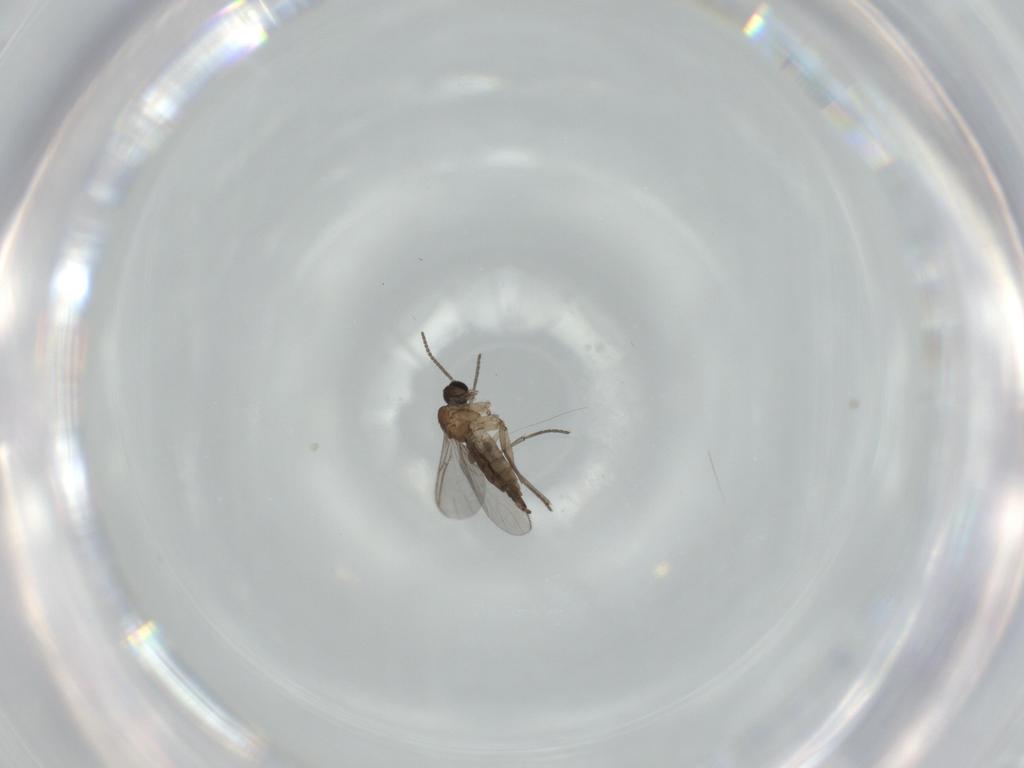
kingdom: Animalia
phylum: Arthropoda
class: Insecta
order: Diptera
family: Sciaridae
